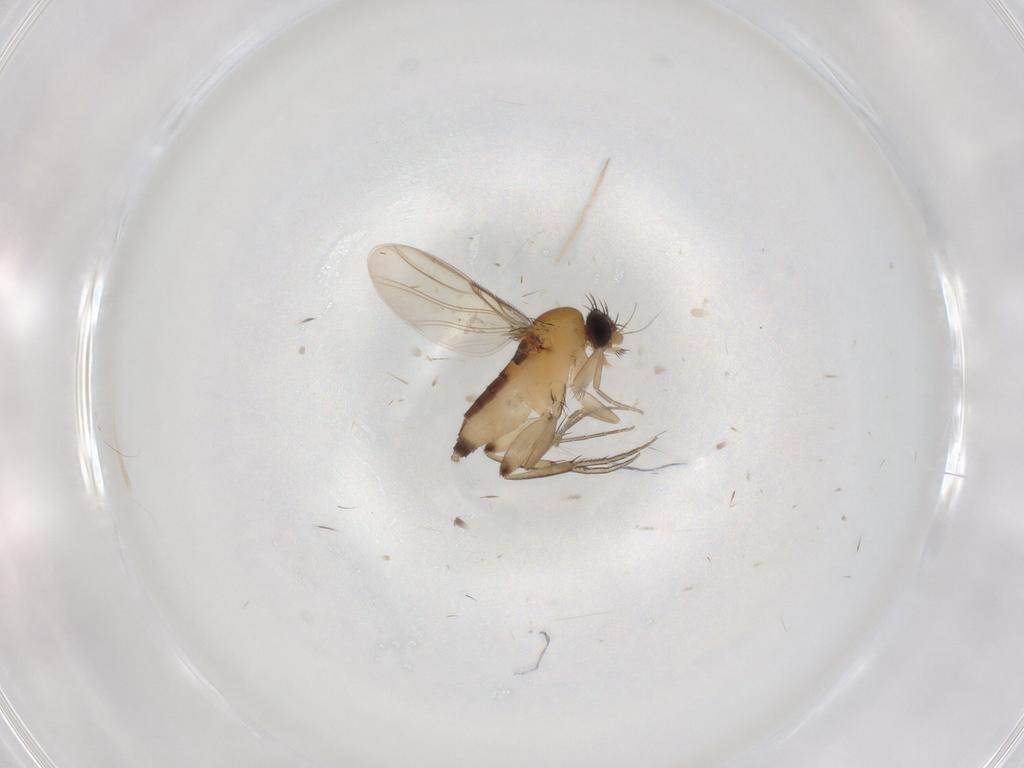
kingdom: Animalia
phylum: Arthropoda
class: Insecta
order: Diptera
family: Phoridae
